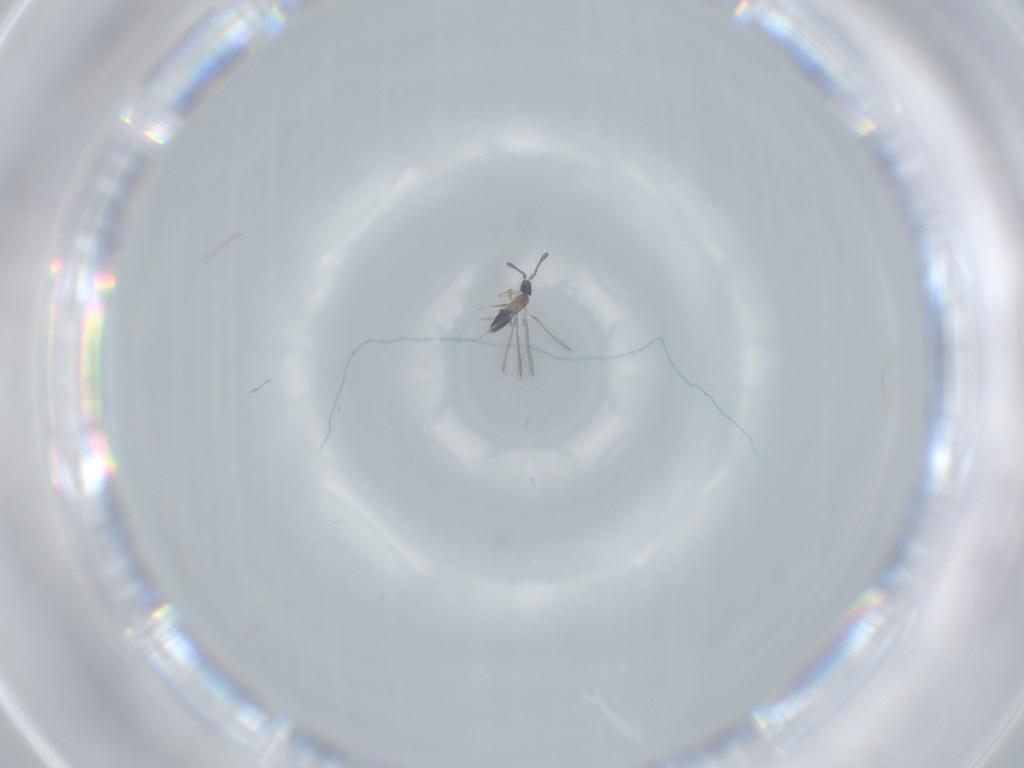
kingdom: Animalia
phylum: Arthropoda
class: Insecta
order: Hymenoptera
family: Mymaridae
